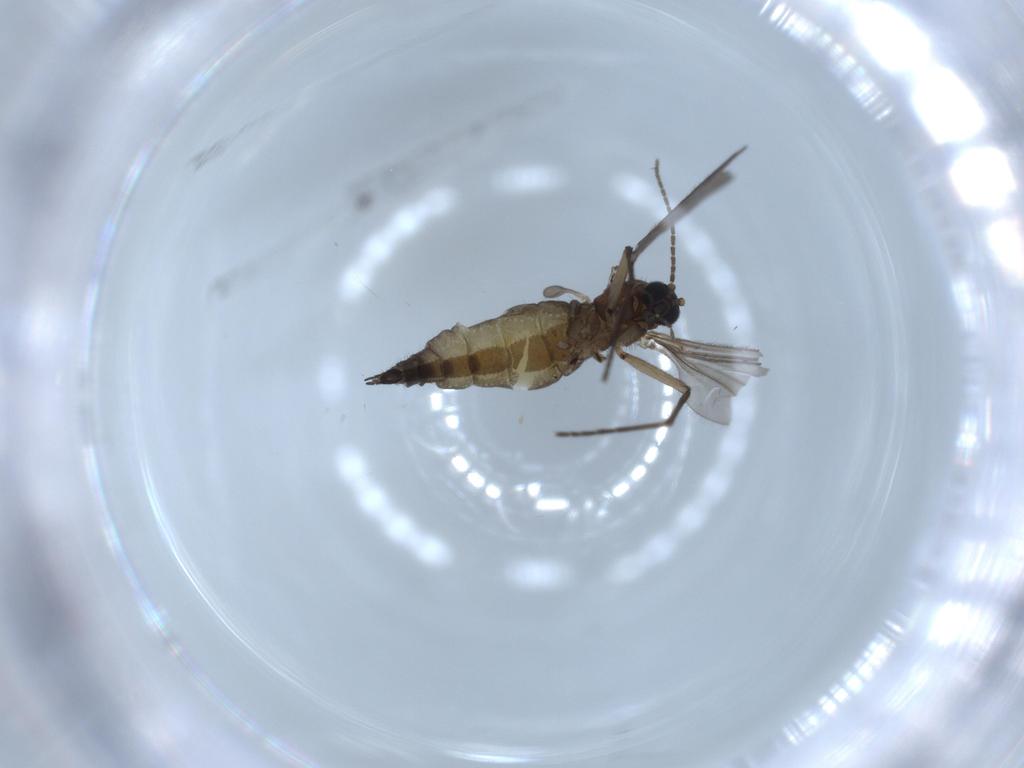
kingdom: Animalia
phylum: Arthropoda
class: Insecta
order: Diptera
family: Sciaridae
